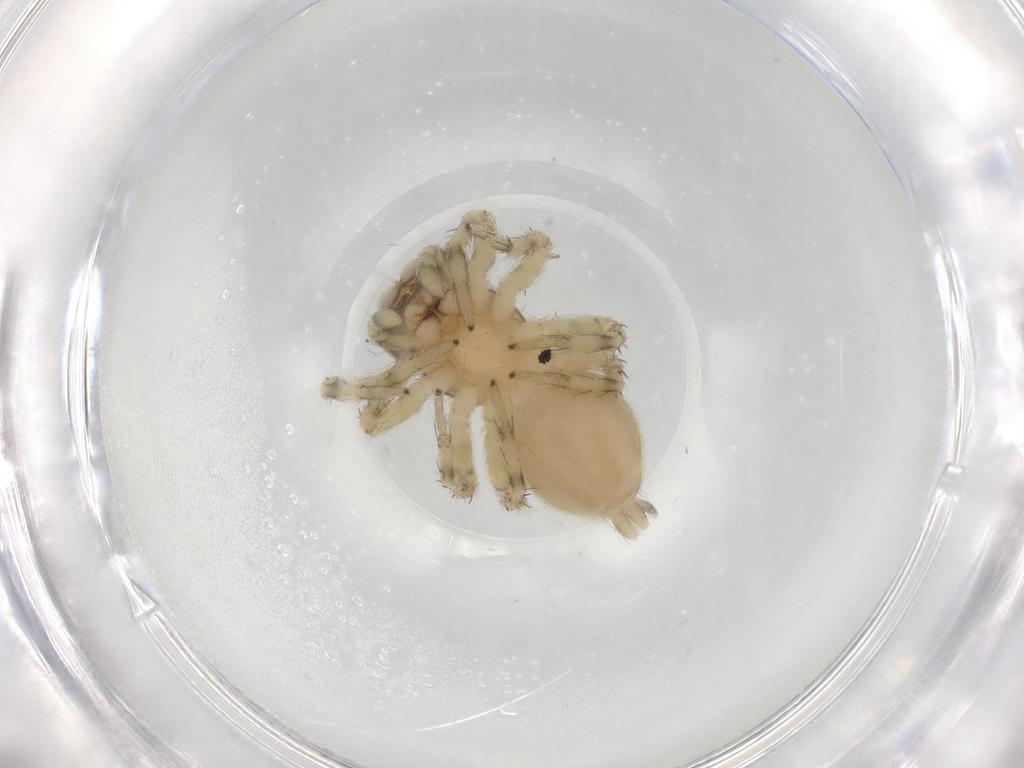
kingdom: Animalia
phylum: Arthropoda
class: Arachnida
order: Araneae
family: Salticidae
